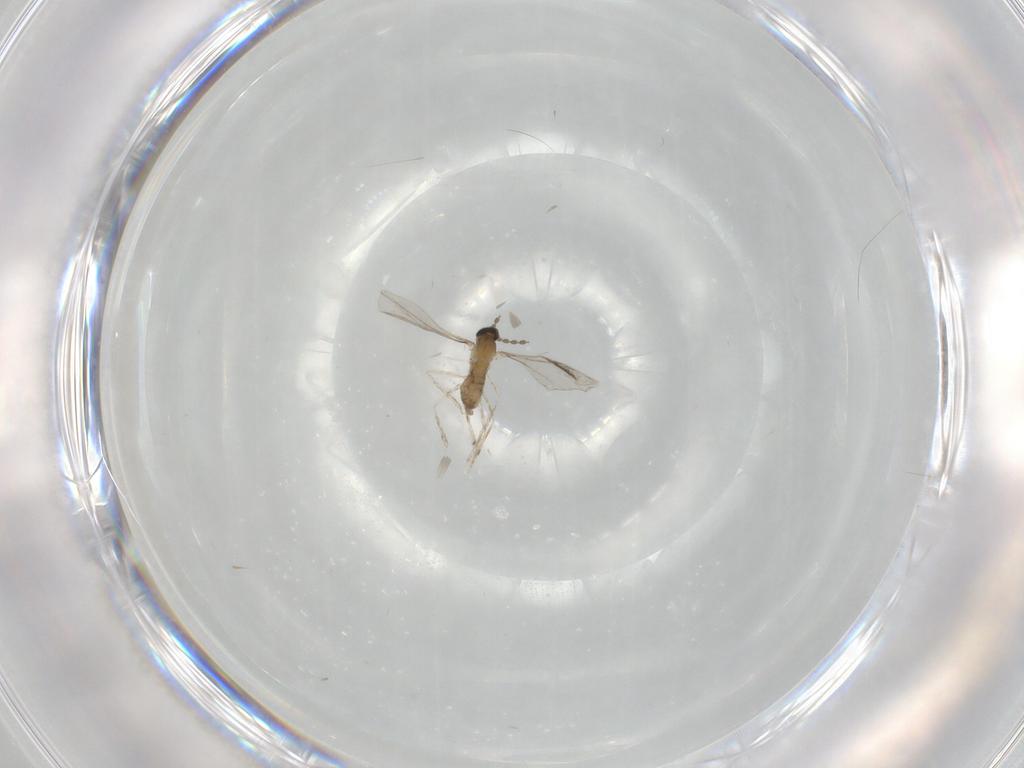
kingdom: Animalia
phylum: Arthropoda
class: Insecta
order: Diptera
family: Cecidomyiidae
